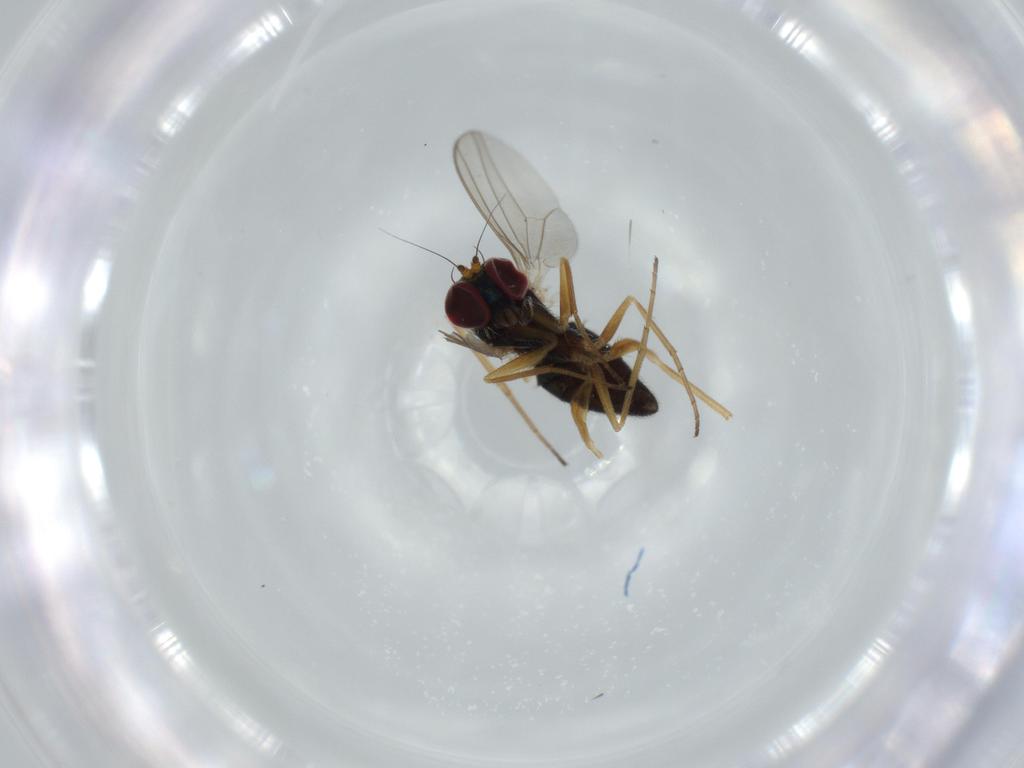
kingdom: Animalia
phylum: Arthropoda
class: Insecta
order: Diptera
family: Dolichopodidae
